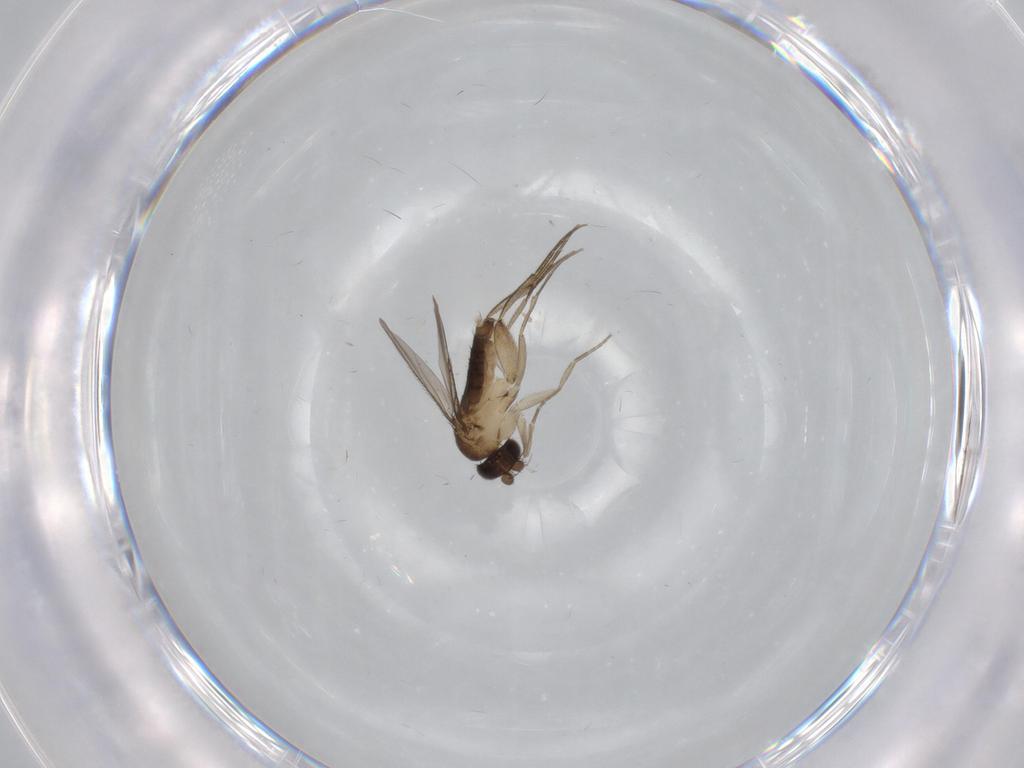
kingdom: Animalia
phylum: Arthropoda
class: Insecta
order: Diptera
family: Phoridae
